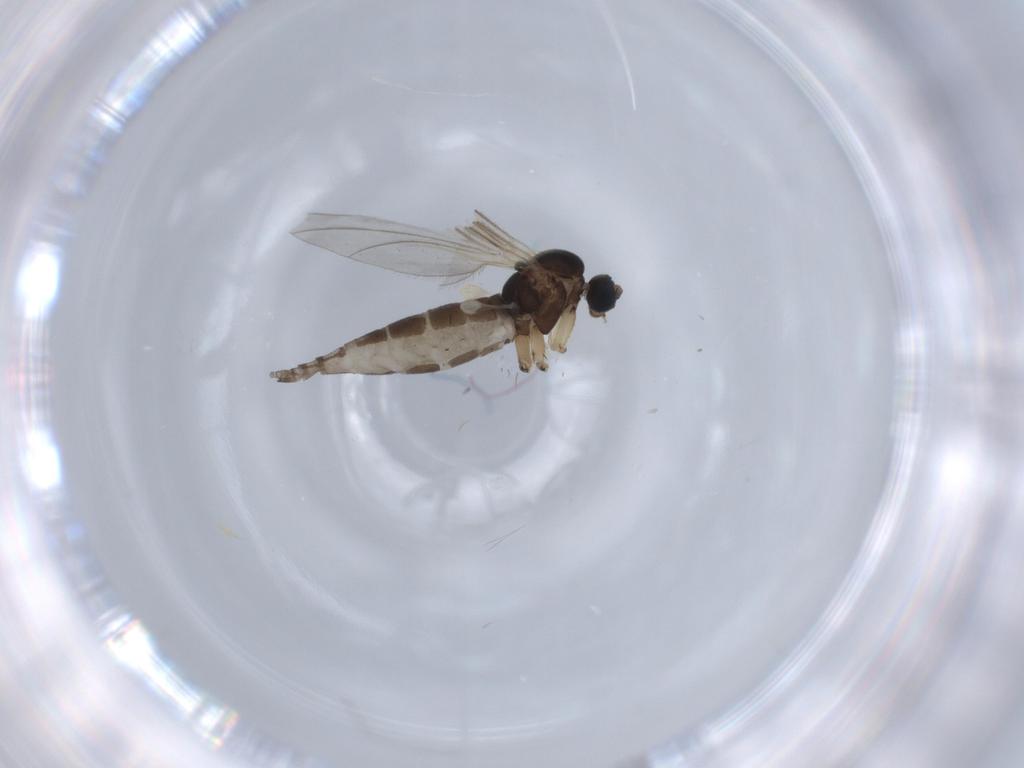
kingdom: Animalia
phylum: Arthropoda
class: Insecta
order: Diptera
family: Sciaridae
